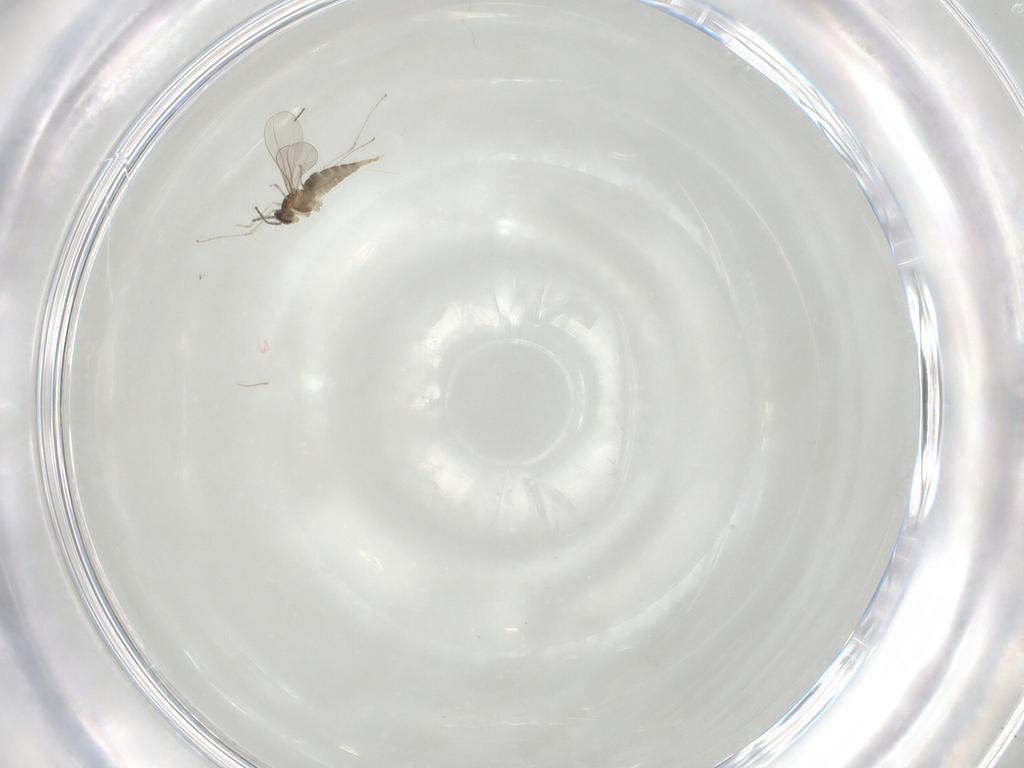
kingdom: Animalia
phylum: Arthropoda
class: Insecta
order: Diptera
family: Cecidomyiidae
